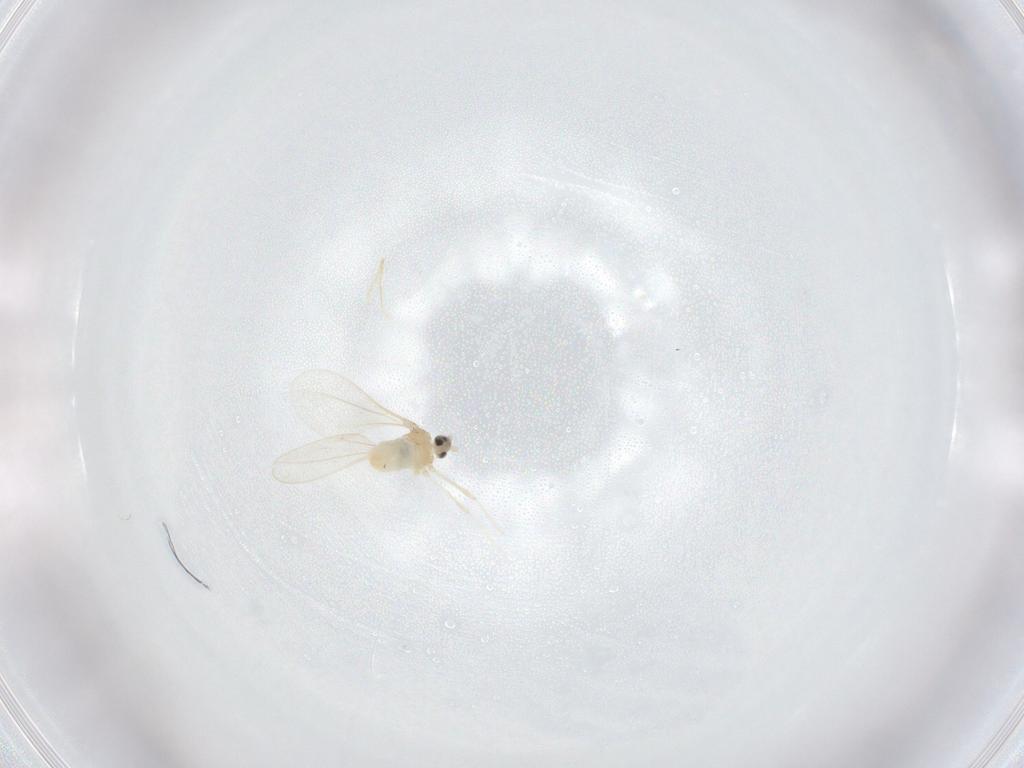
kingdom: Animalia
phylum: Arthropoda
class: Insecta
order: Diptera
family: Cecidomyiidae
